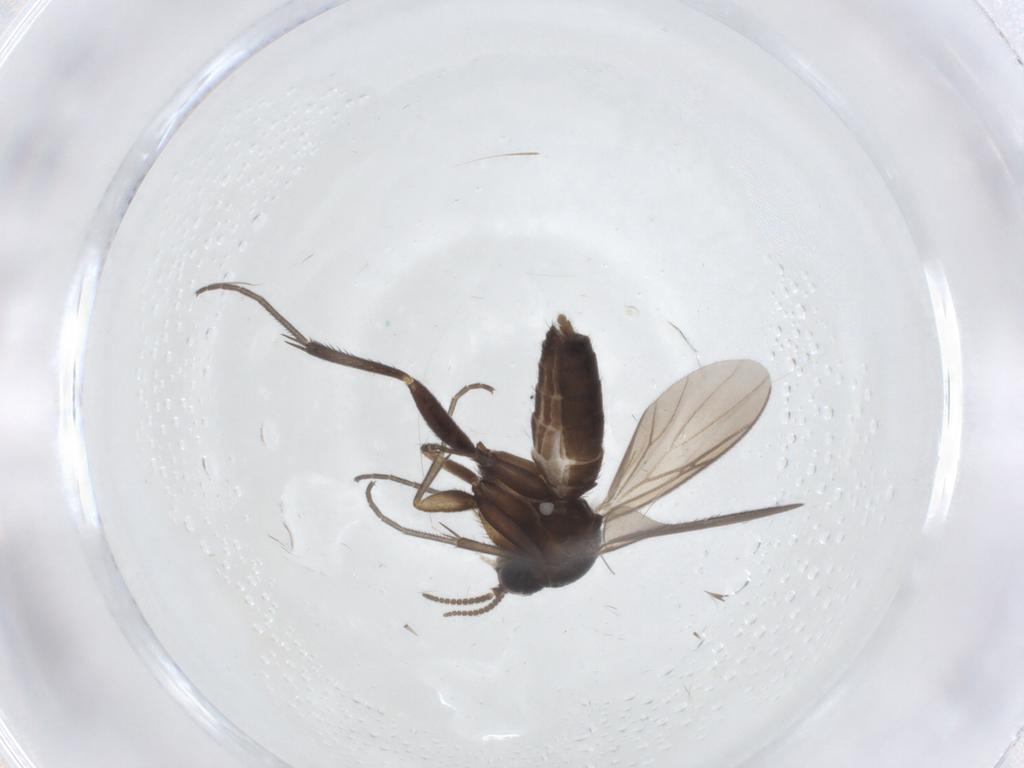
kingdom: Animalia
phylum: Arthropoda
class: Insecta
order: Diptera
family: Mycetophilidae
